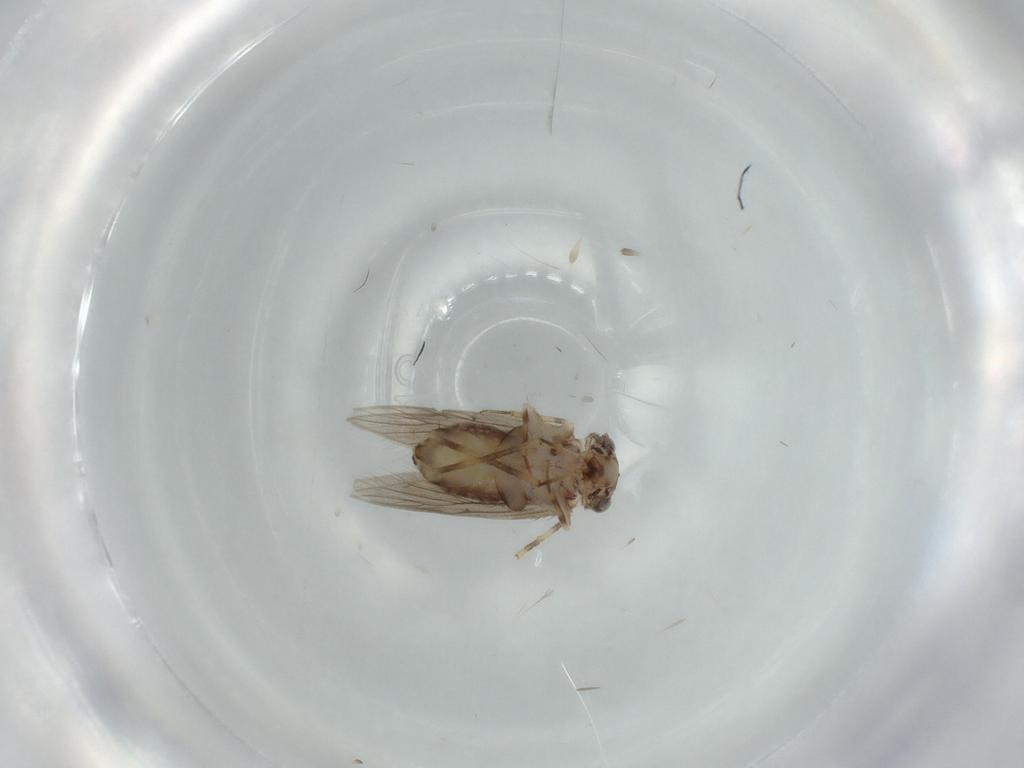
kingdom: Animalia
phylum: Arthropoda
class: Insecta
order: Psocodea
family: Lepidopsocidae
